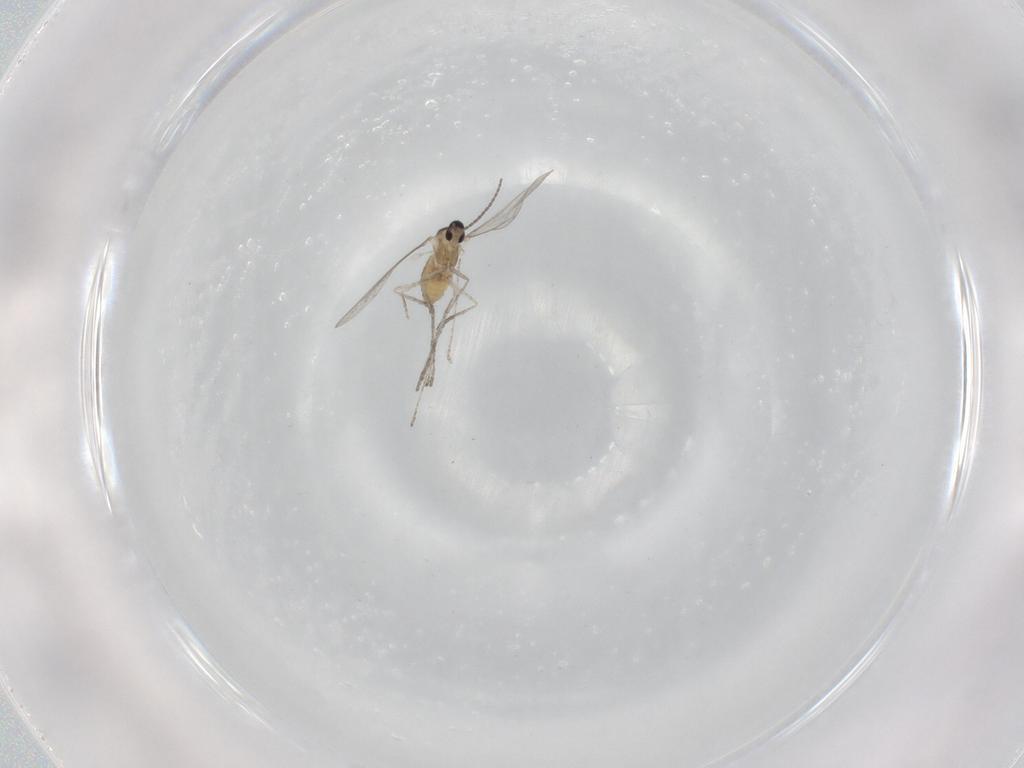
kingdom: Animalia
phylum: Arthropoda
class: Insecta
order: Diptera
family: Cecidomyiidae
